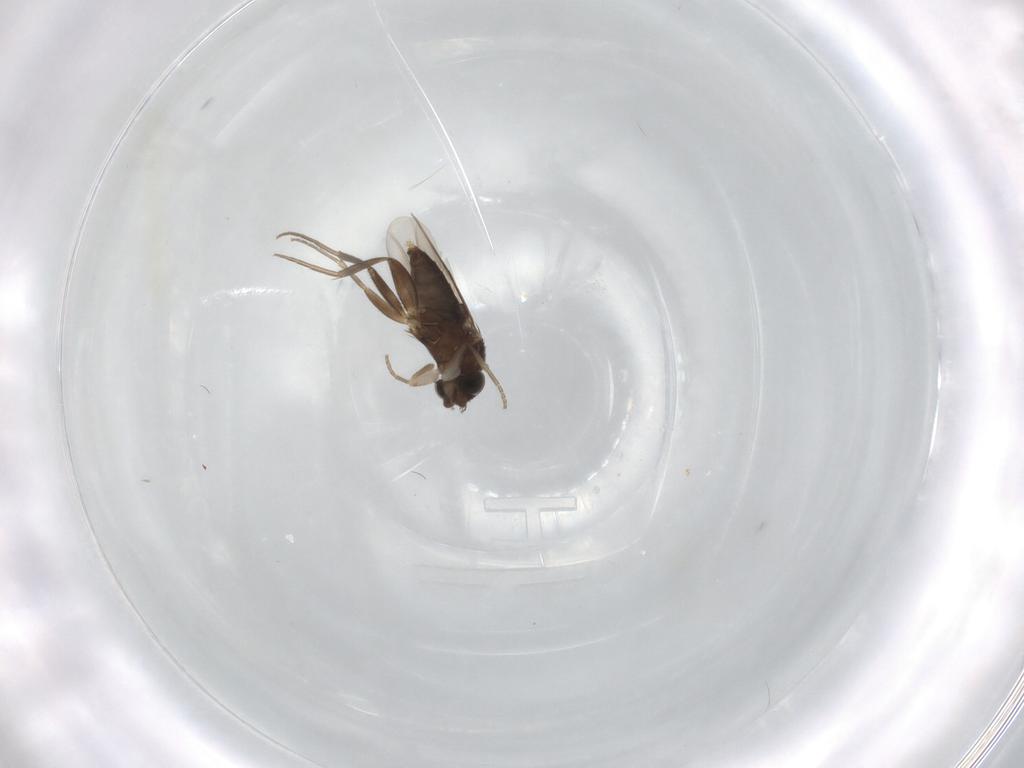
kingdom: Animalia
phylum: Arthropoda
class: Insecta
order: Diptera
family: Phoridae
